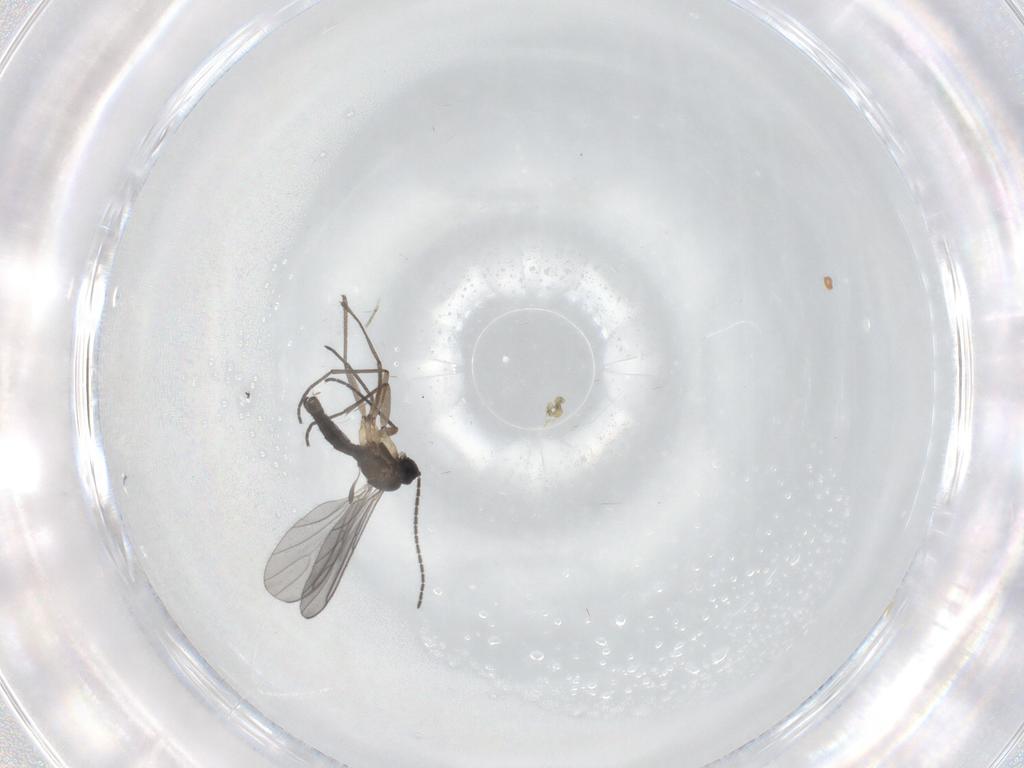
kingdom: Animalia
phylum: Arthropoda
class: Insecta
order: Diptera
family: Sciaridae
